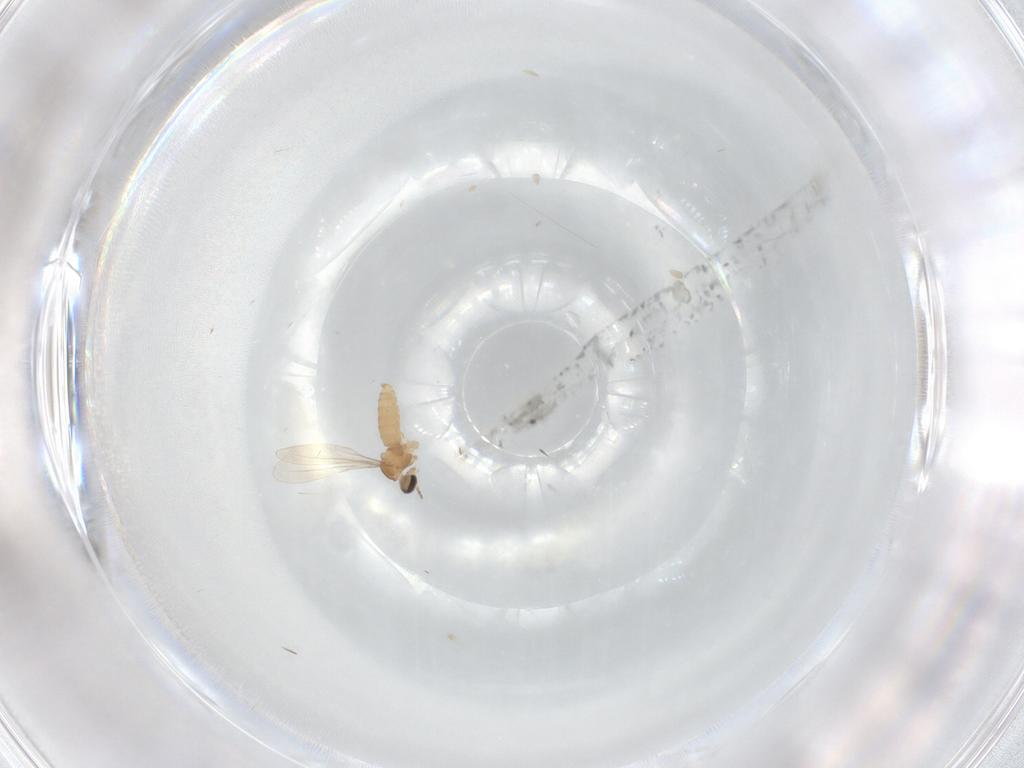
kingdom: Animalia
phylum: Arthropoda
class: Insecta
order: Diptera
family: Cecidomyiidae
